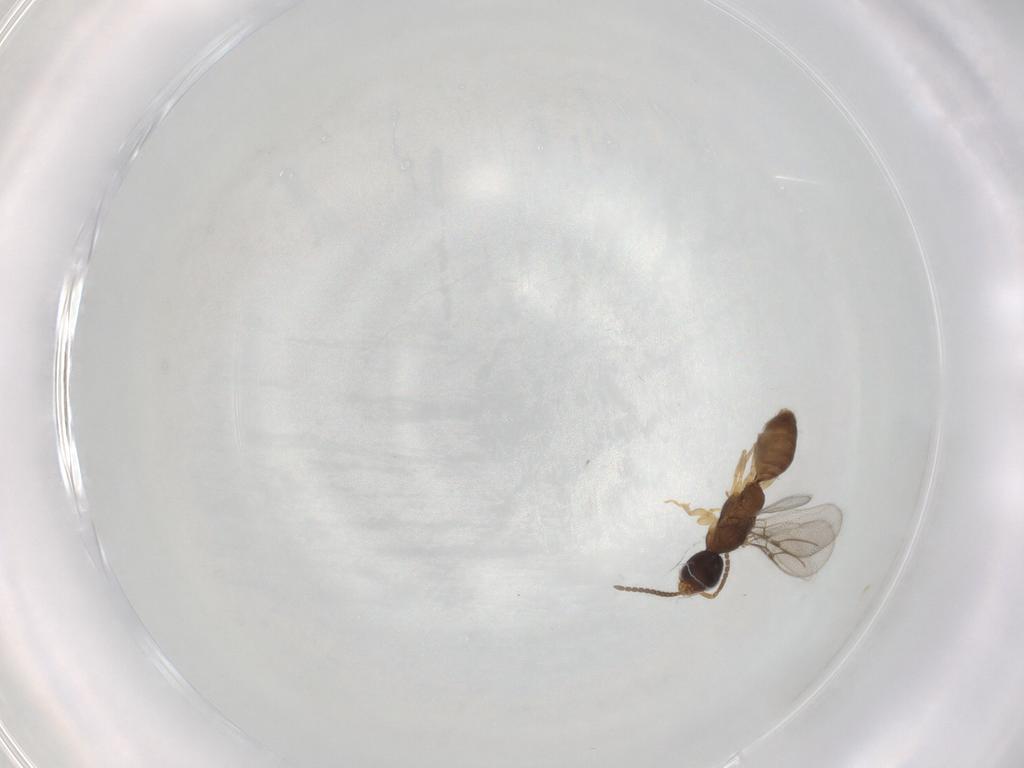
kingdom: Animalia
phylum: Arthropoda
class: Insecta
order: Hymenoptera
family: Bethylidae
